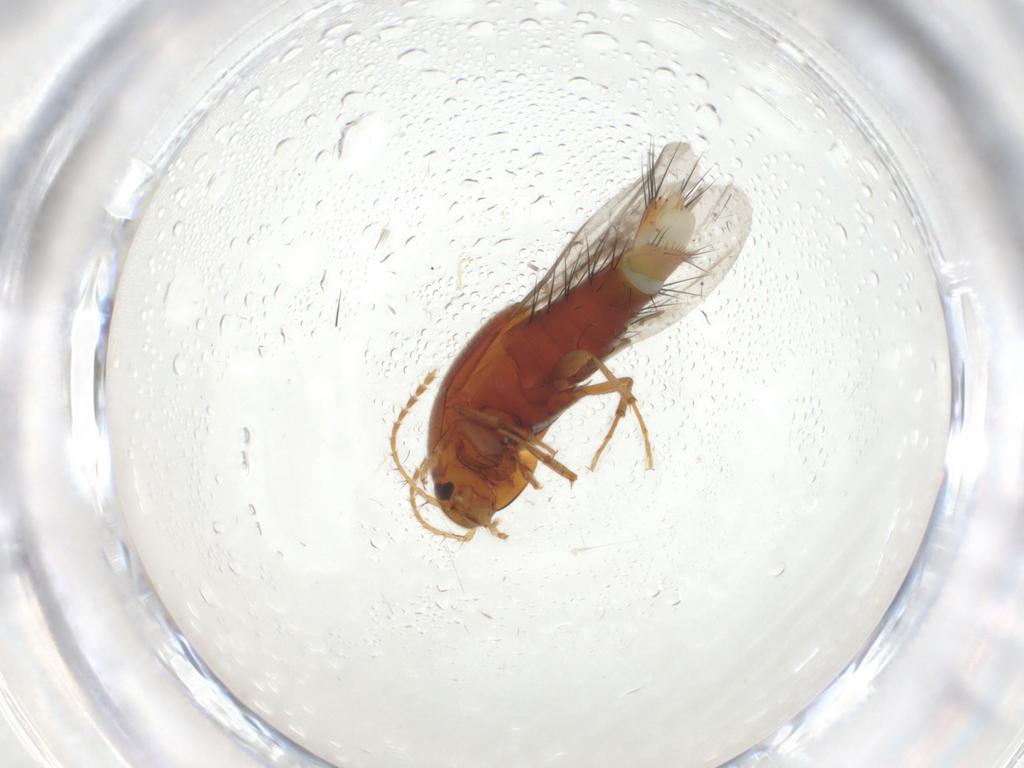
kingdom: Animalia
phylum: Arthropoda
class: Insecta
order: Coleoptera
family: Staphylinidae
